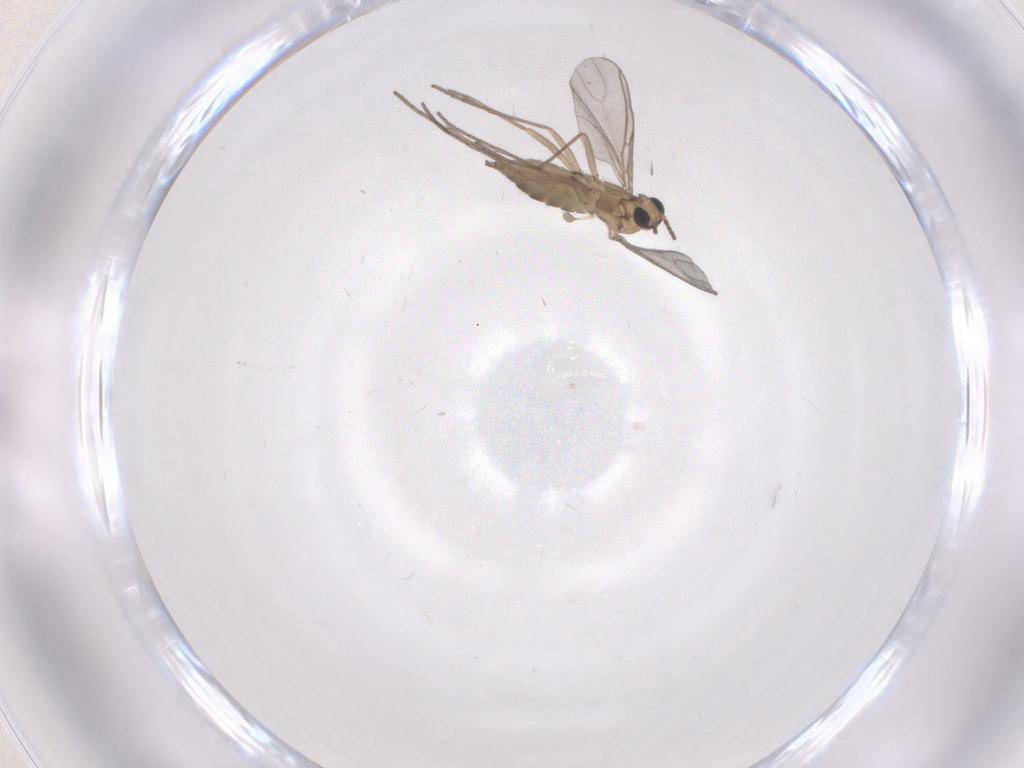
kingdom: Animalia
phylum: Arthropoda
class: Insecta
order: Diptera
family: Sciaridae
